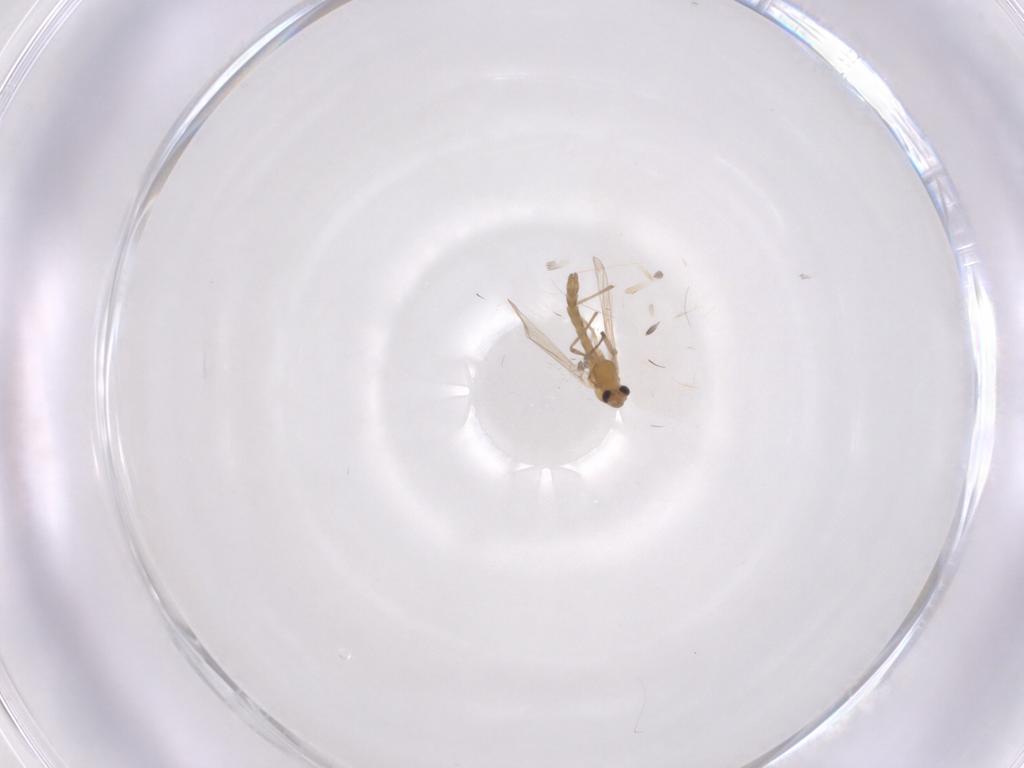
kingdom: Animalia
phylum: Arthropoda
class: Insecta
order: Diptera
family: Chironomidae
